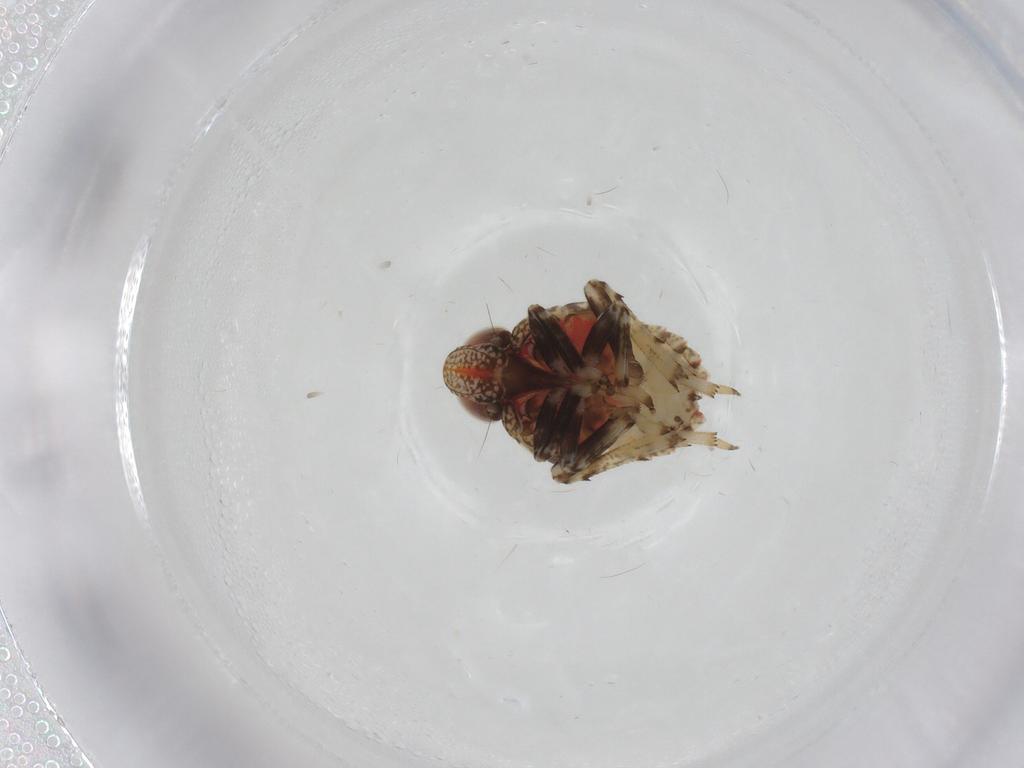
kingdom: Animalia
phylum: Arthropoda
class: Insecta
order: Hemiptera
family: Issidae
